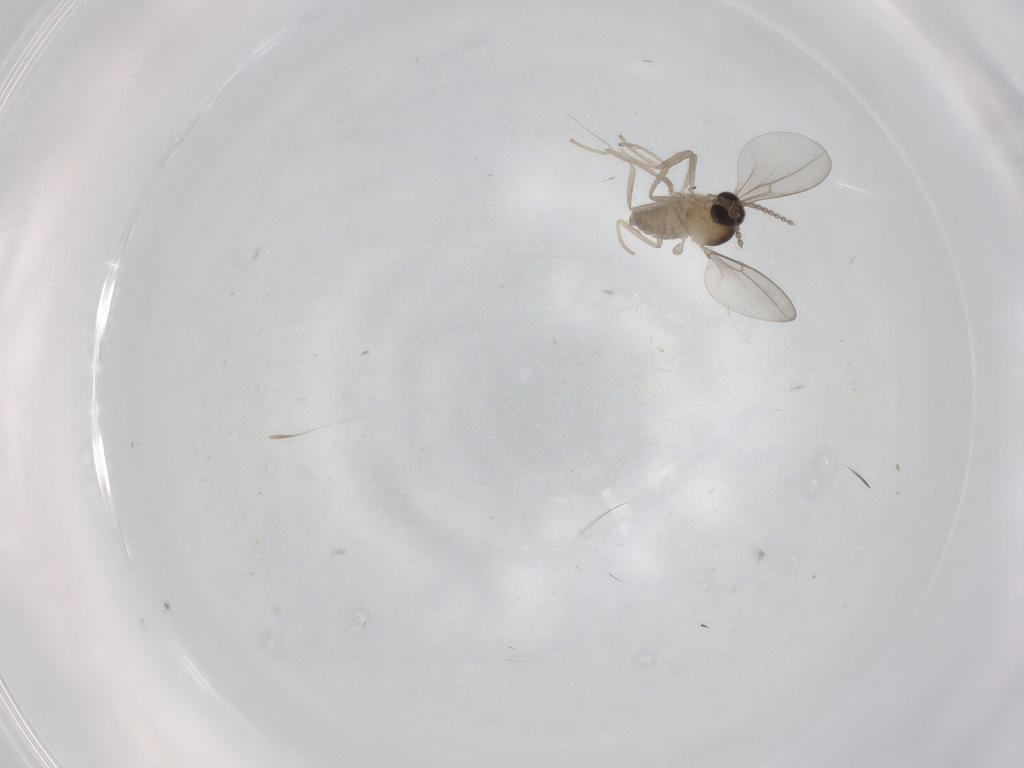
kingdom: Animalia
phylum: Arthropoda
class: Insecta
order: Diptera
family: Cecidomyiidae
